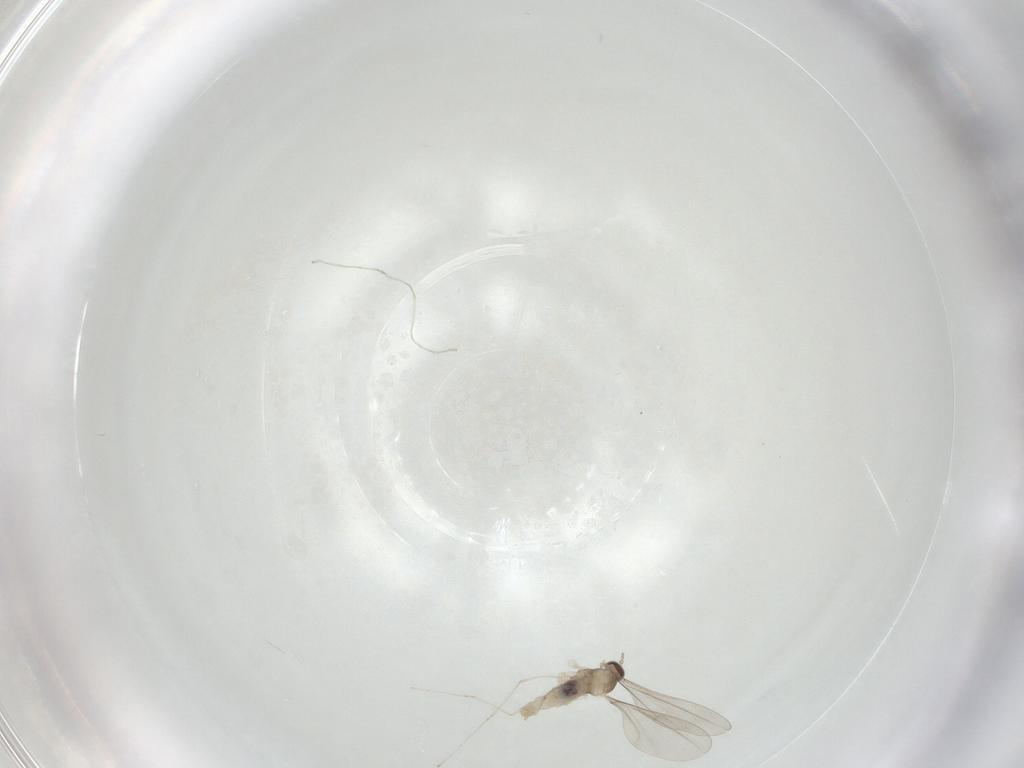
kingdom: Animalia
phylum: Arthropoda
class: Insecta
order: Diptera
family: Cecidomyiidae
